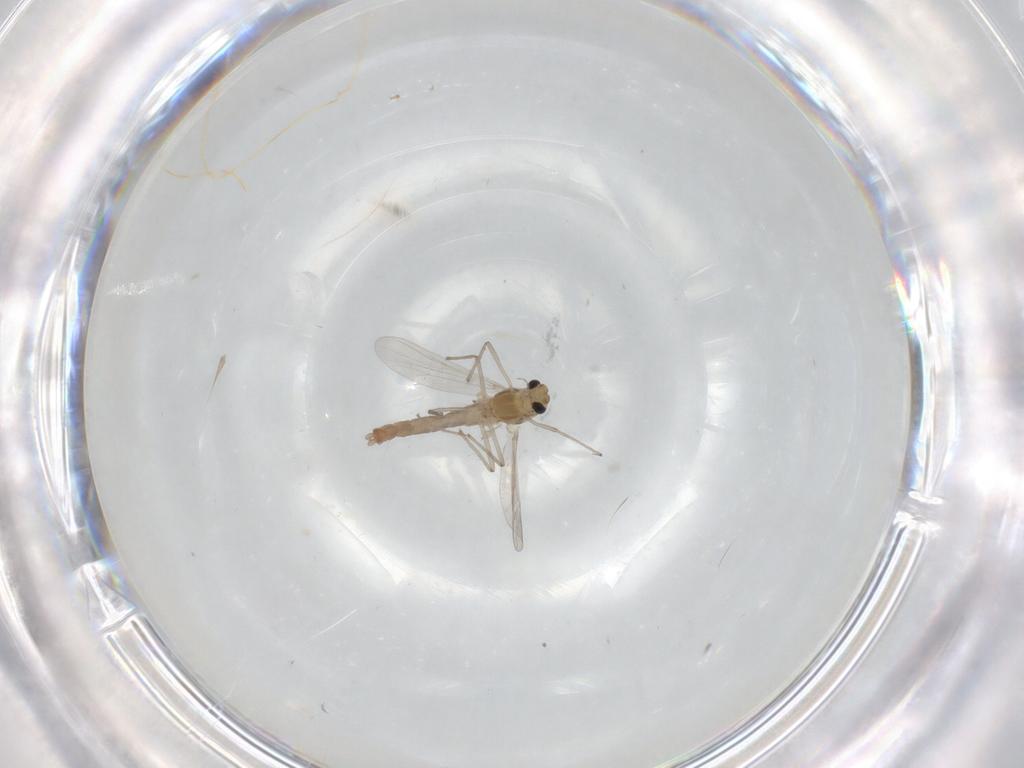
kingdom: Animalia
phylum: Arthropoda
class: Insecta
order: Diptera
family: Chironomidae
